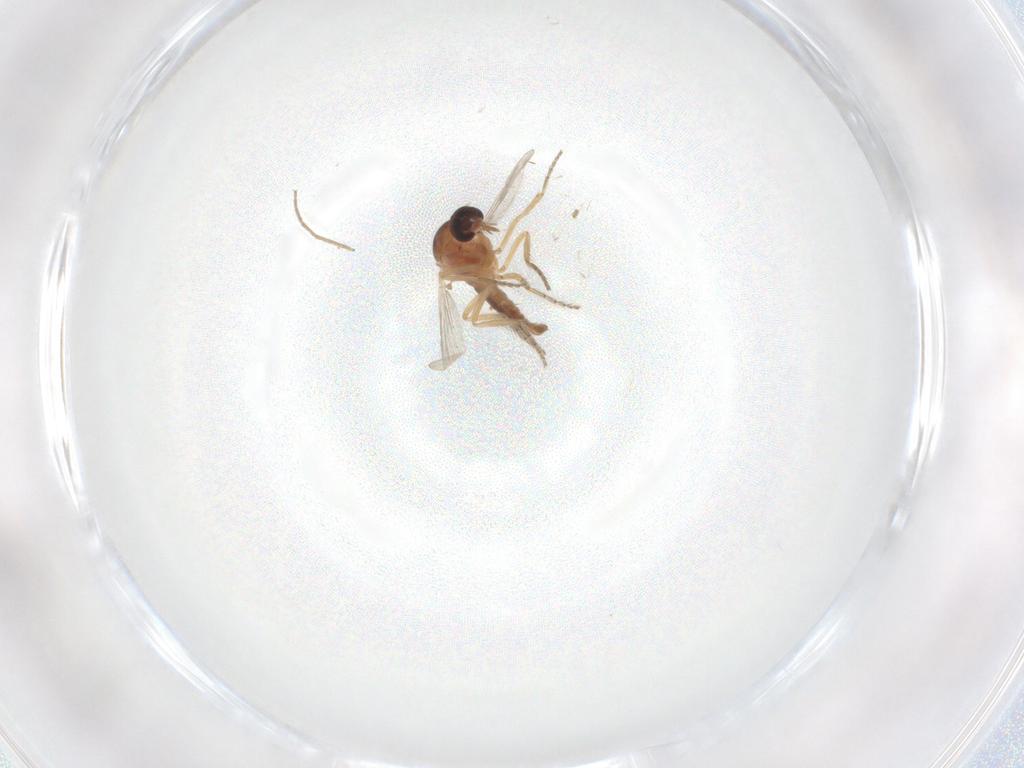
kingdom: Animalia
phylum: Arthropoda
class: Insecta
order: Diptera
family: Ceratopogonidae
